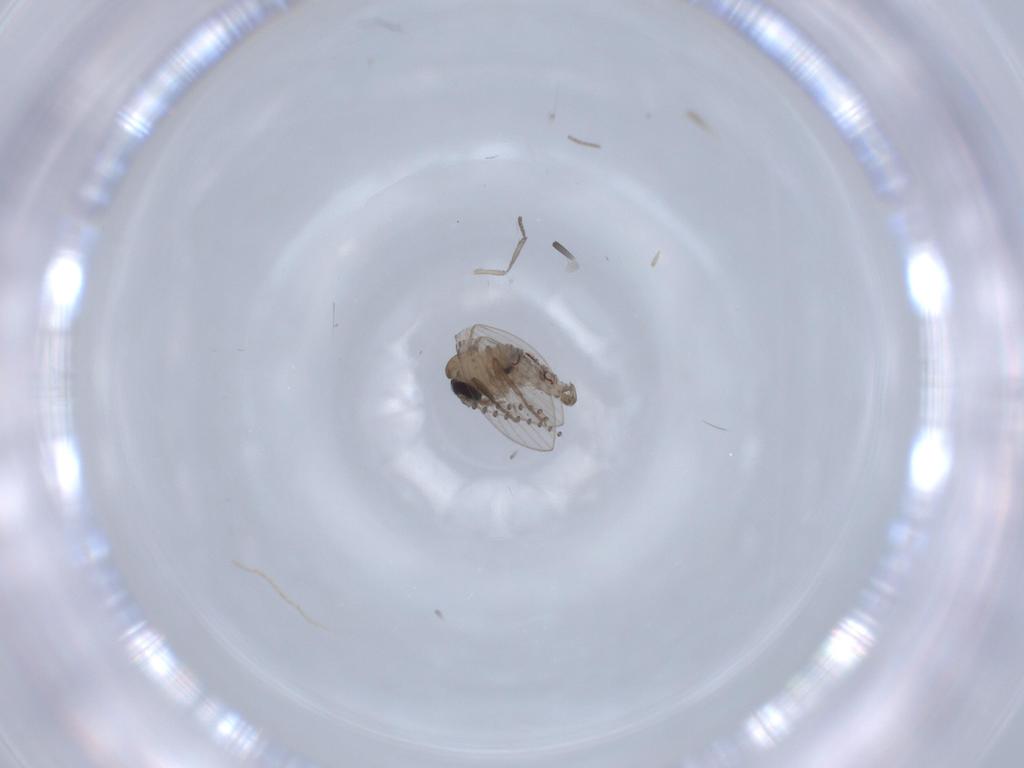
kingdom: Animalia
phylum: Arthropoda
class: Insecta
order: Diptera
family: Psychodidae
